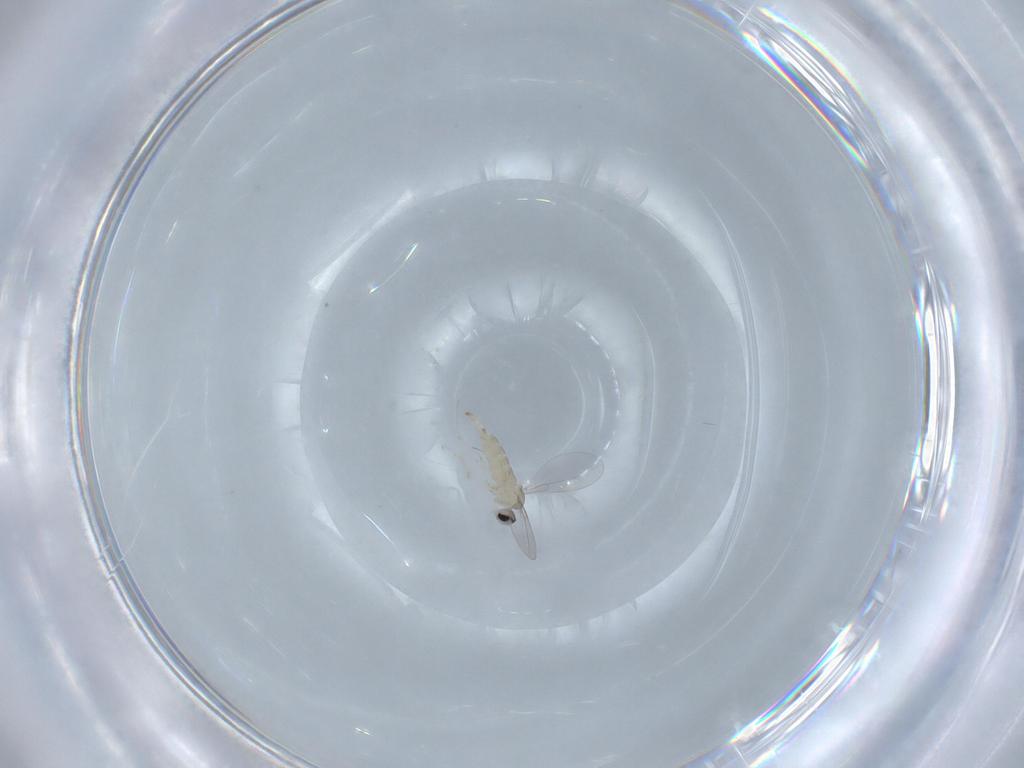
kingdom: Animalia
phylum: Arthropoda
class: Insecta
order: Diptera
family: Cecidomyiidae
